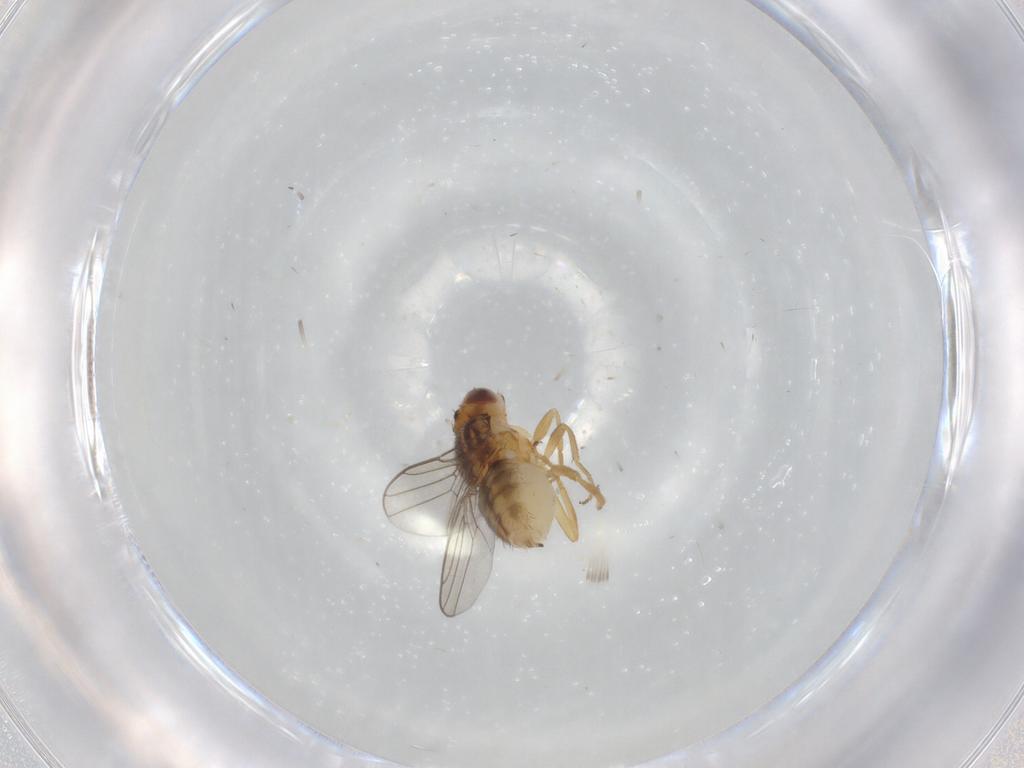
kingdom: Animalia
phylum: Arthropoda
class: Insecta
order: Diptera
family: Chloropidae
